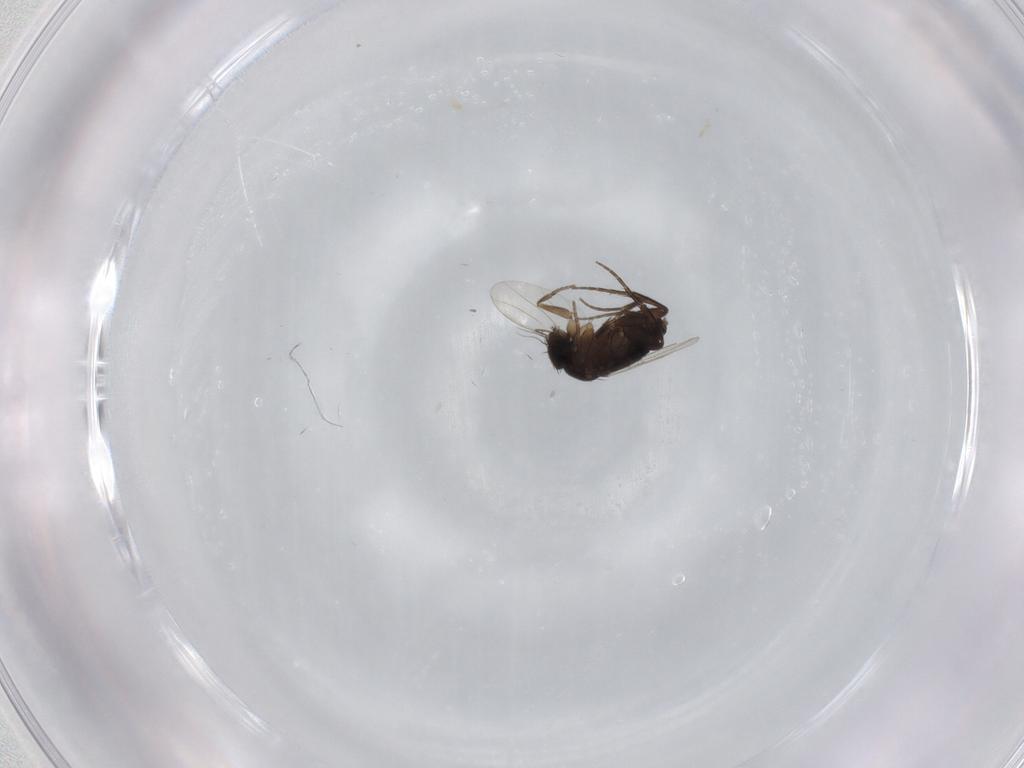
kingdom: Animalia
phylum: Arthropoda
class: Insecta
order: Diptera
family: Phoridae
